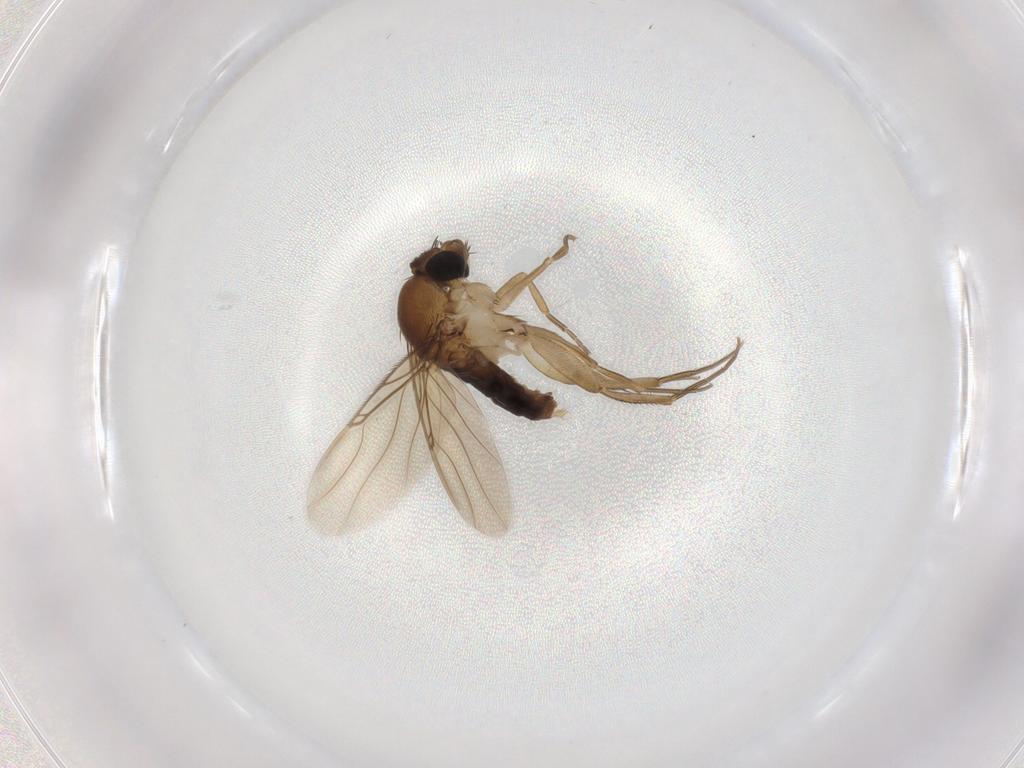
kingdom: Animalia
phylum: Arthropoda
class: Insecta
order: Diptera
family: Phoridae
